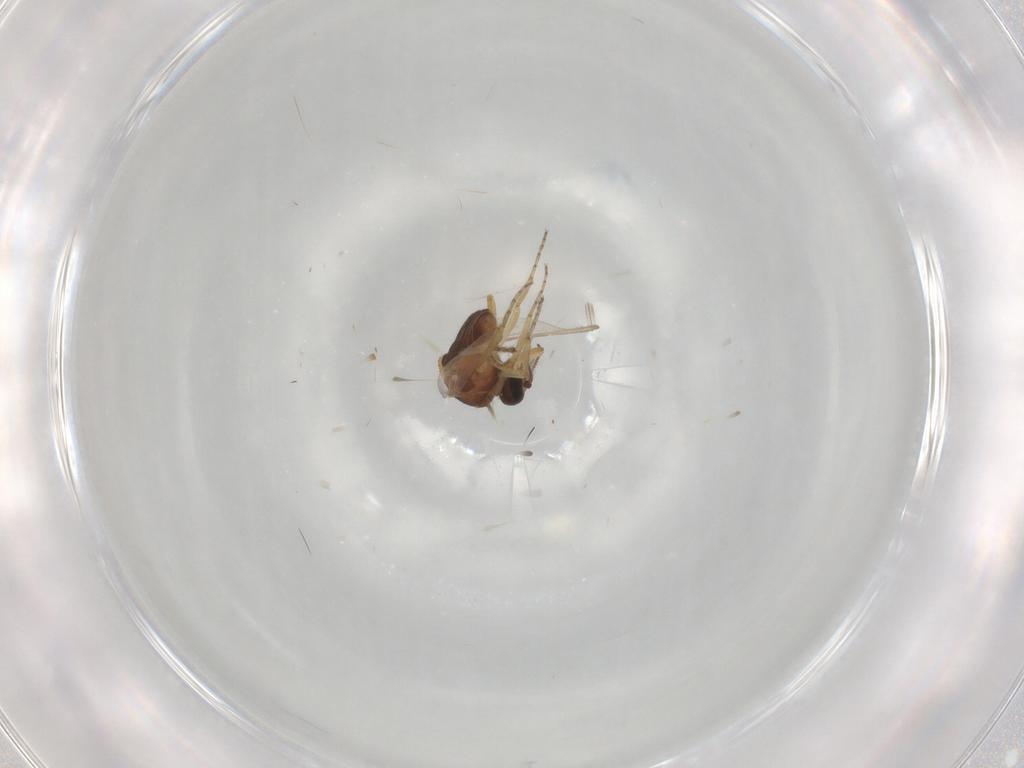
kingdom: Animalia
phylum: Arthropoda
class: Insecta
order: Diptera
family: Ceratopogonidae
